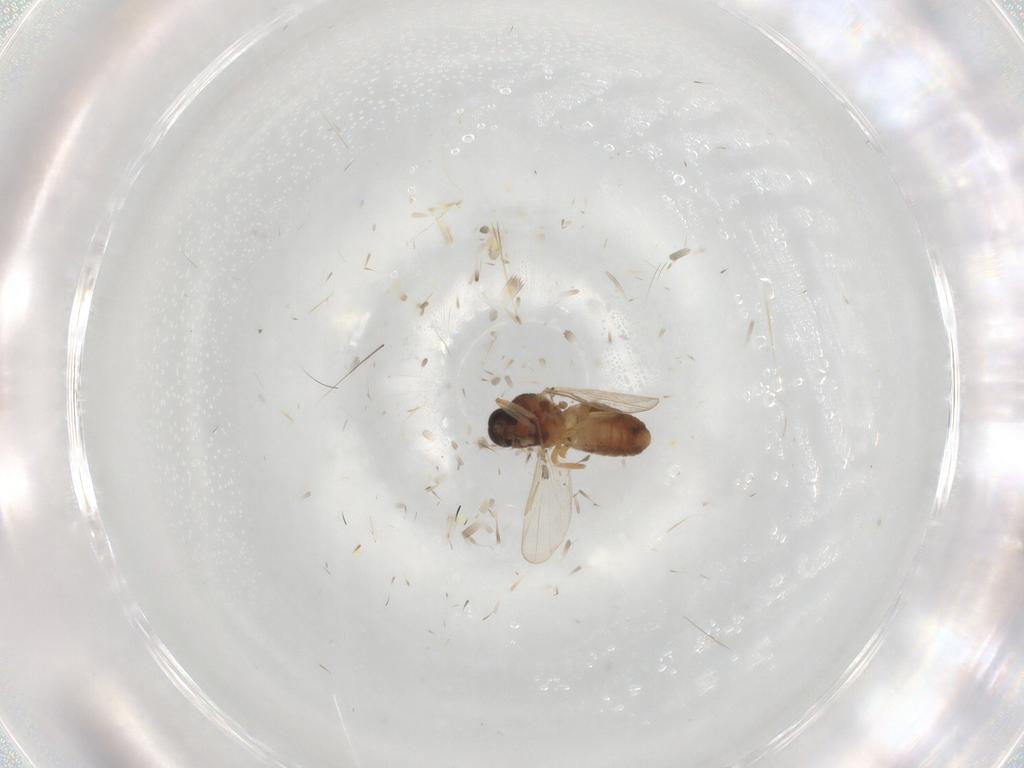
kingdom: Animalia
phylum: Arthropoda
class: Insecta
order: Diptera
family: Ceratopogonidae
